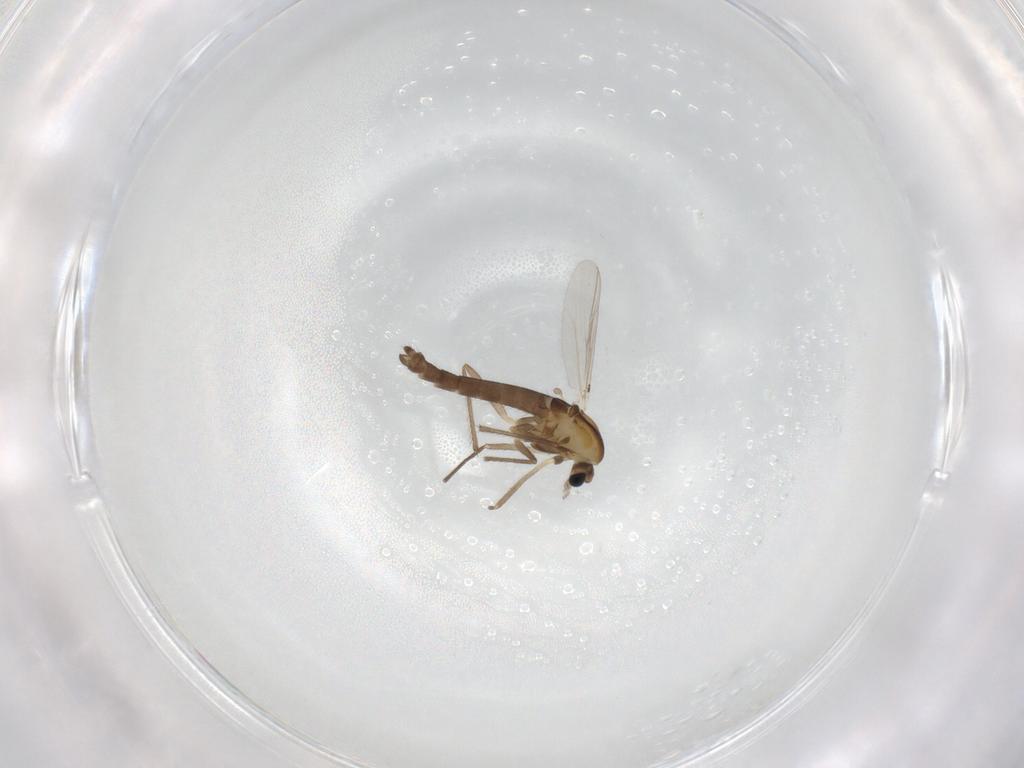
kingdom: Animalia
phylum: Arthropoda
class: Insecta
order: Diptera
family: Chironomidae
